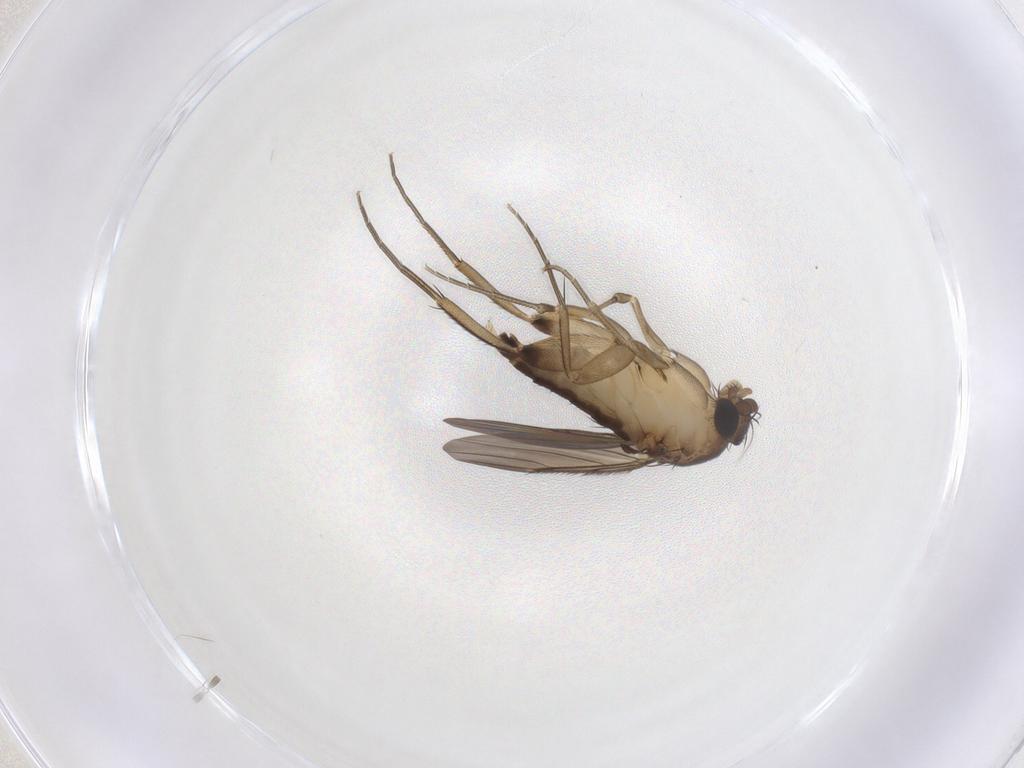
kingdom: Animalia
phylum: Arthropoda
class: Insecta
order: Diptera
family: Phoridae
